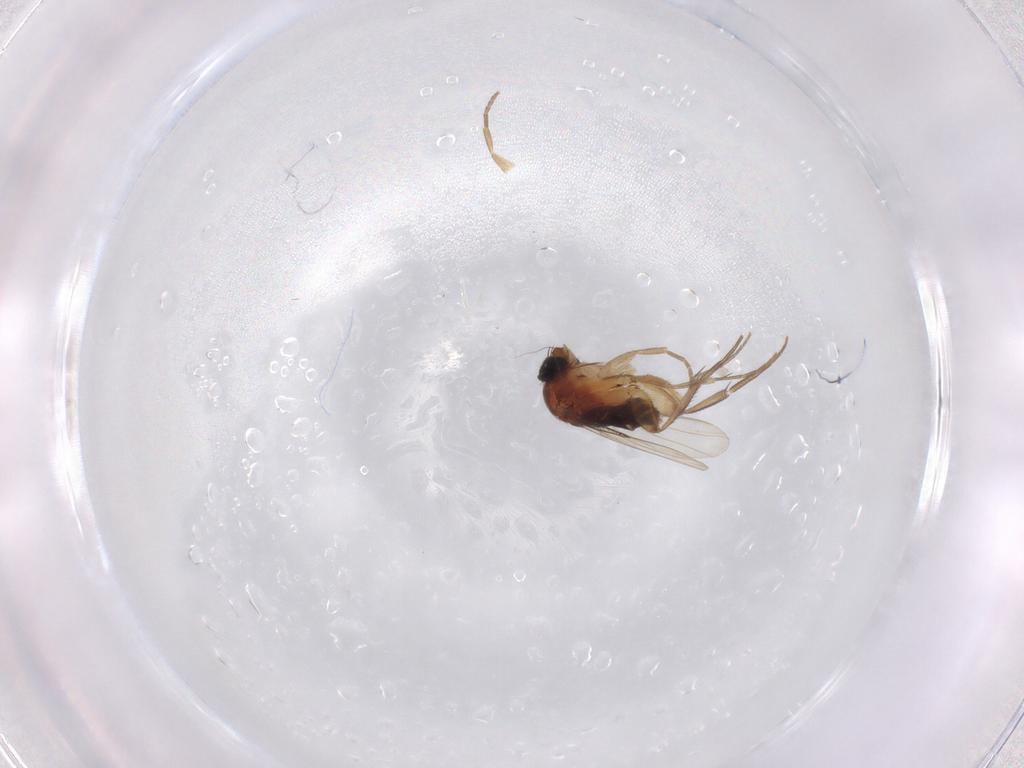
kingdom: Animalia
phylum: Arthropoda
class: Insecta
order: Diptera
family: Phoridae
